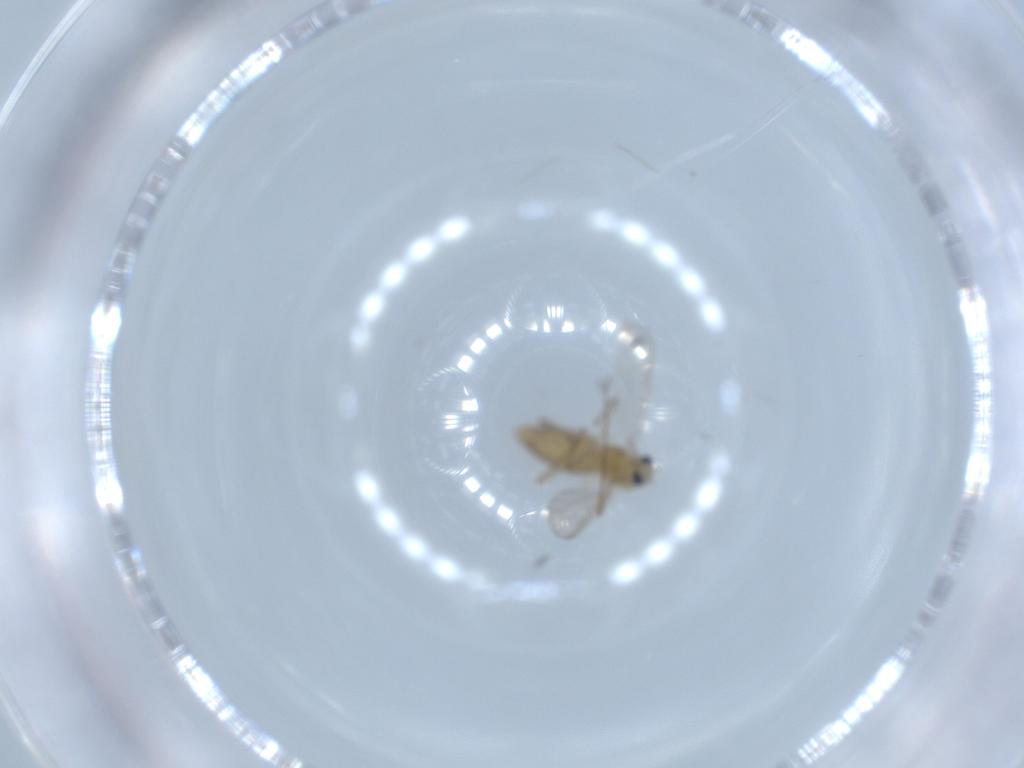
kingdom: Animalia
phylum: Arthropoda
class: Insecta
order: Diptera
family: Chironomidae
